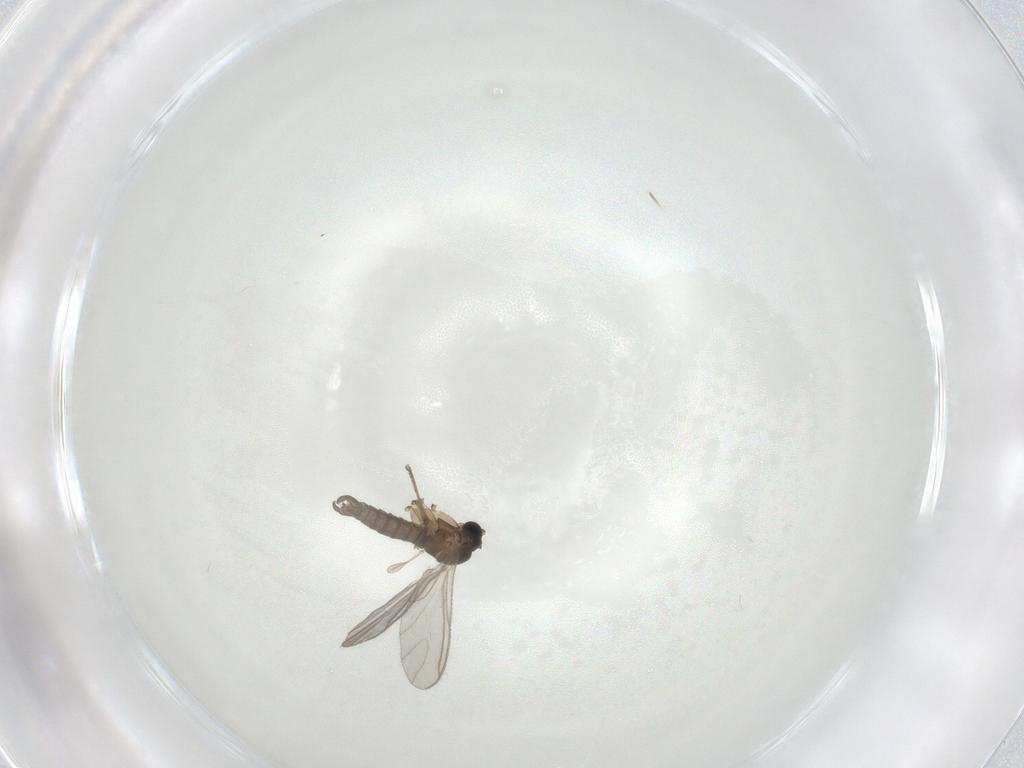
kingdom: Animalia
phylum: Arthropoda
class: Insecta
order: Diptera
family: Sciaridae
